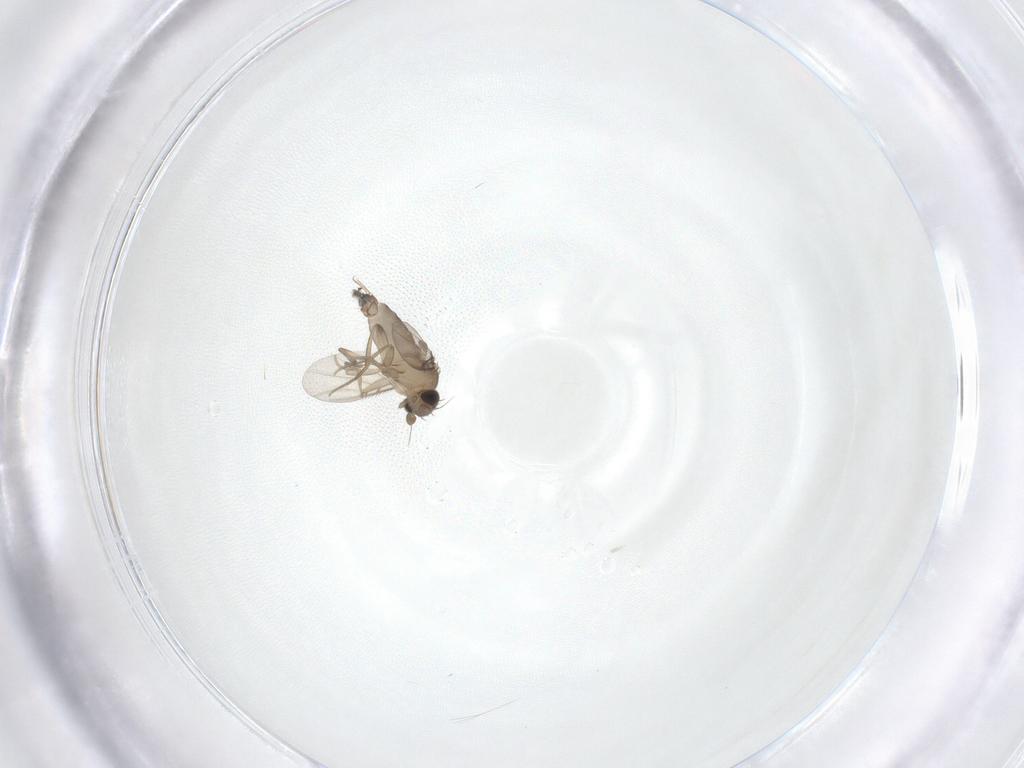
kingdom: Animalia
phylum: Arthropoda
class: Insecta
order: Diptera
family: Phoridae
